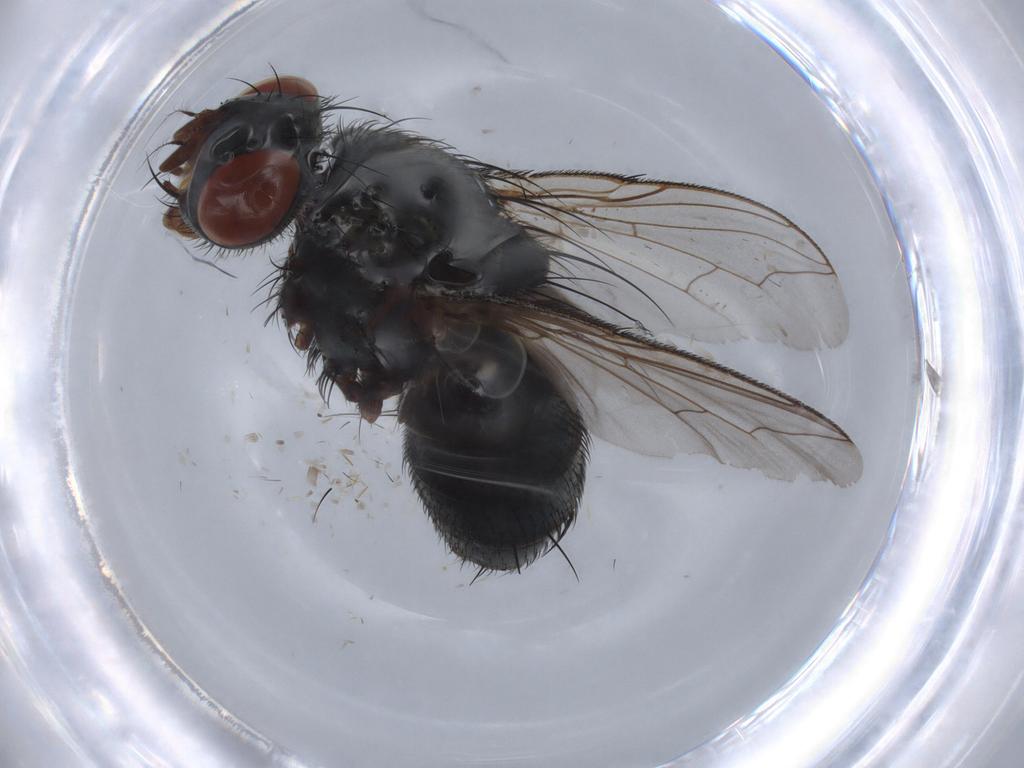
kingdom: Animalia
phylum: Arthropoda
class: Insecta
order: Diptera
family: Sarcophagidae
